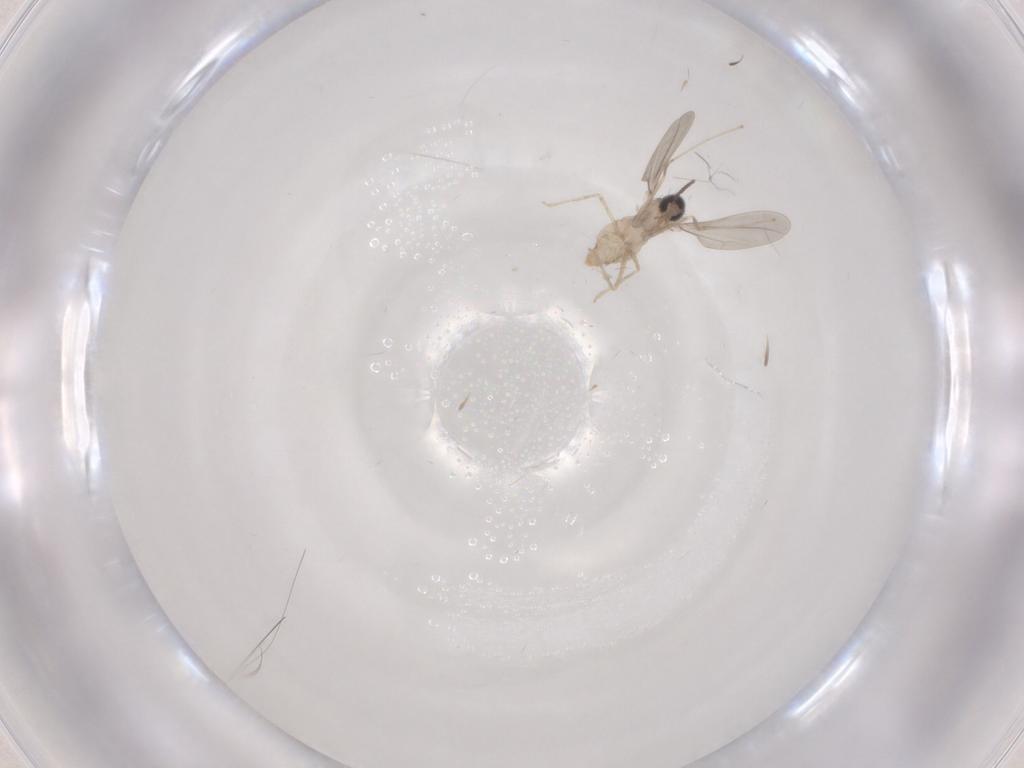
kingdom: Animalia
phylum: Arthropoda
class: Insecta
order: Diptera
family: Cecidomyiidae
